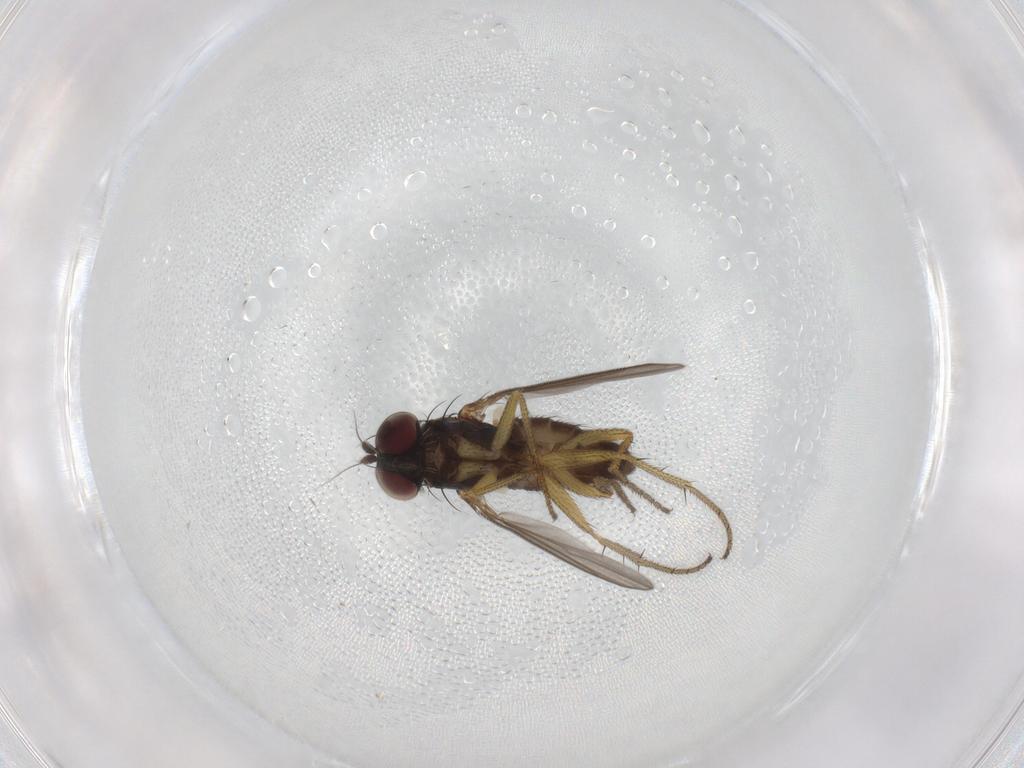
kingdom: Animalia
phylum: Arthropoda
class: Insecta
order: Diptera
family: Dolichopodidae
